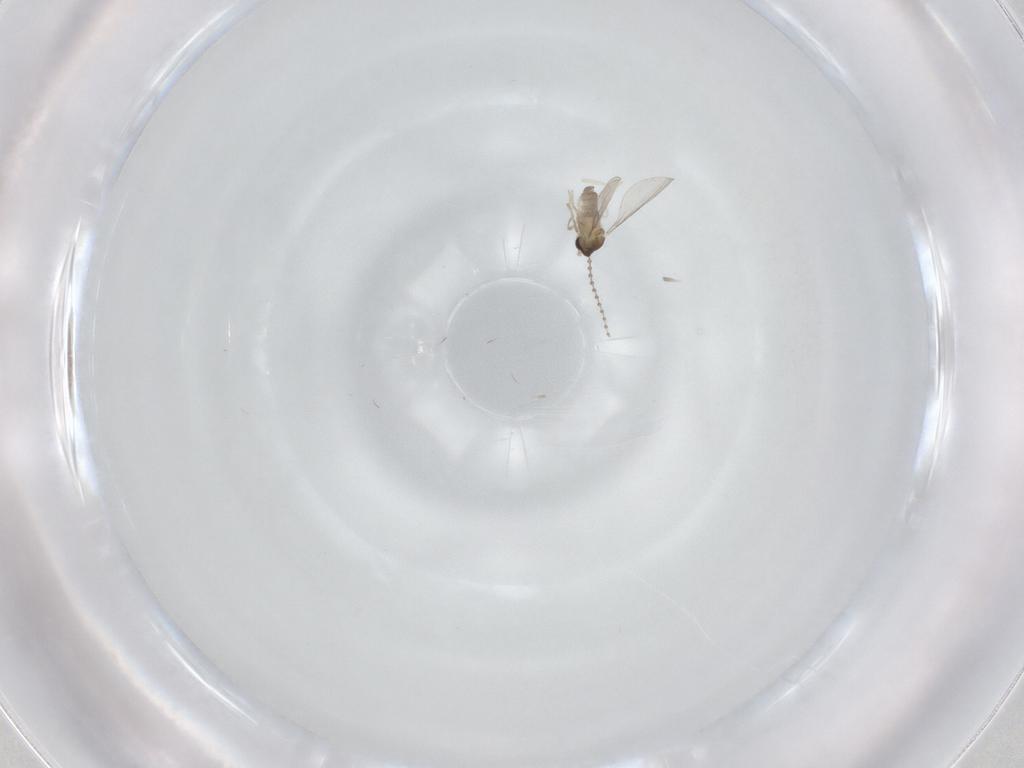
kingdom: Animalia
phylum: Arthropoda
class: Insecta
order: Diptera
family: Cecidomyiidae
